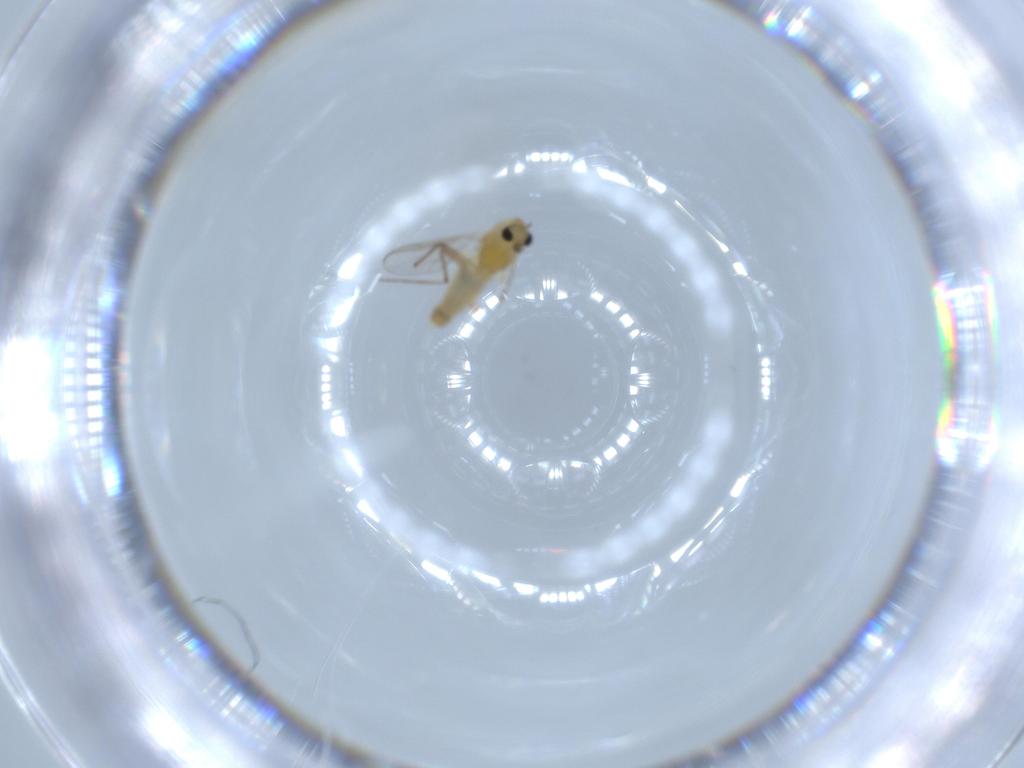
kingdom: Animalia
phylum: Arthropoda
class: Insecta
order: Diptera
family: Chironomidae
